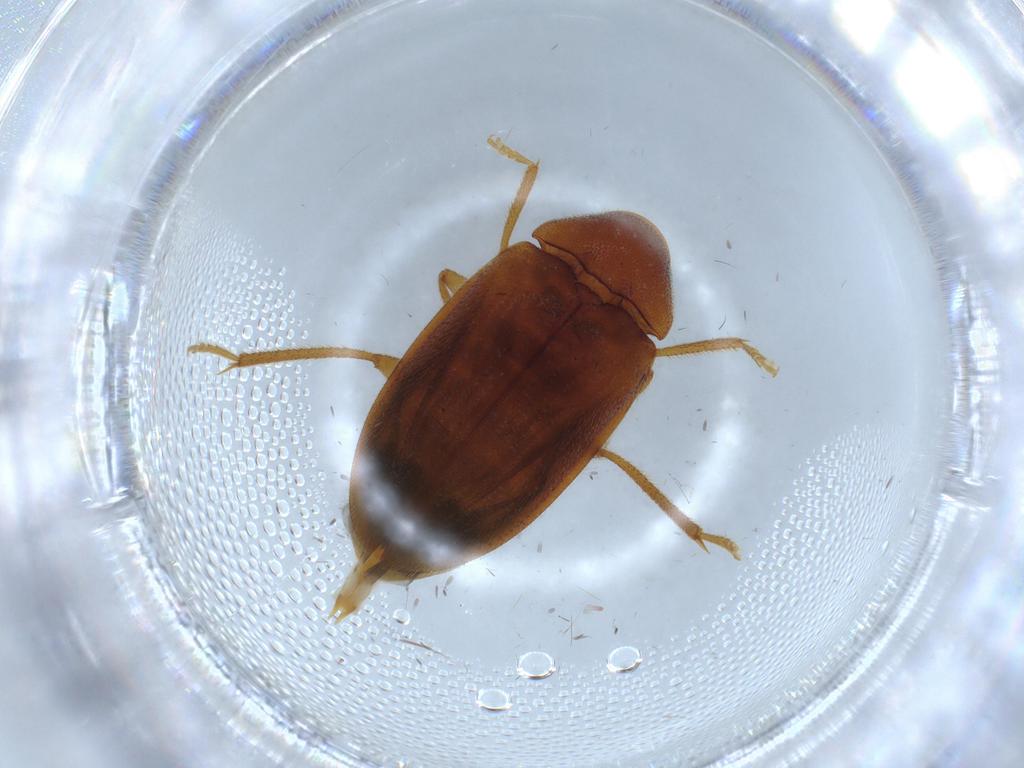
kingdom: Animalia
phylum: Arthropoda
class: Insecta
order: Coleoptera
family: Ptilodactylidae
